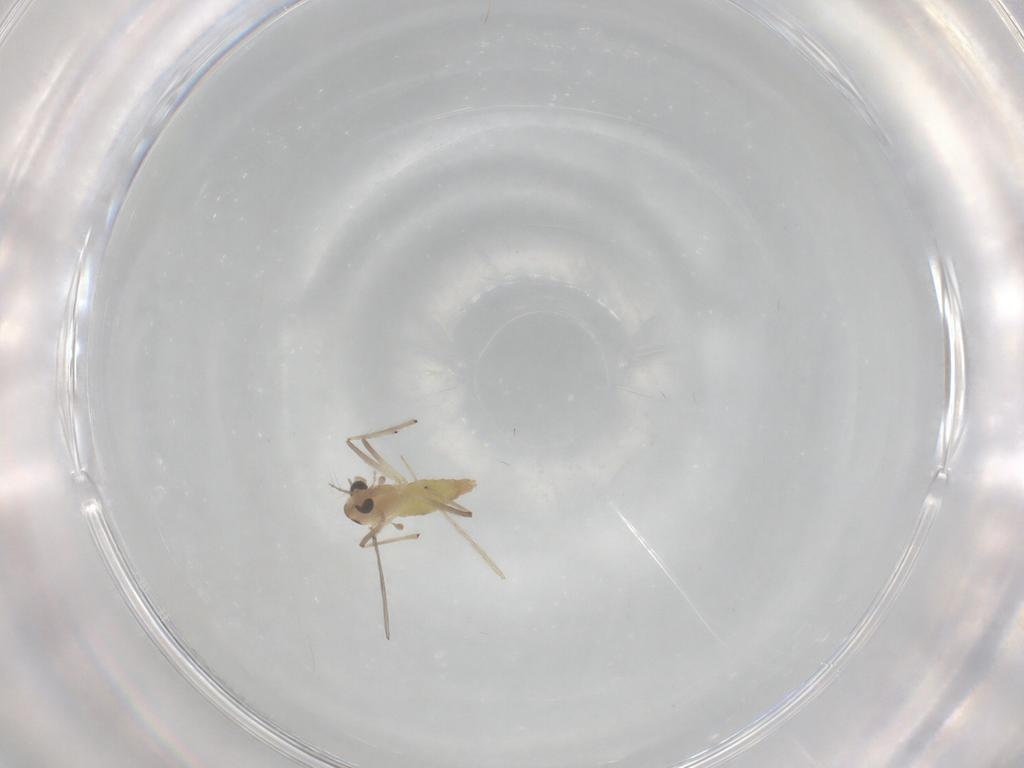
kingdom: Animalia
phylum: Arthropoda
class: Insecta
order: Diptera
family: Chironomidae
